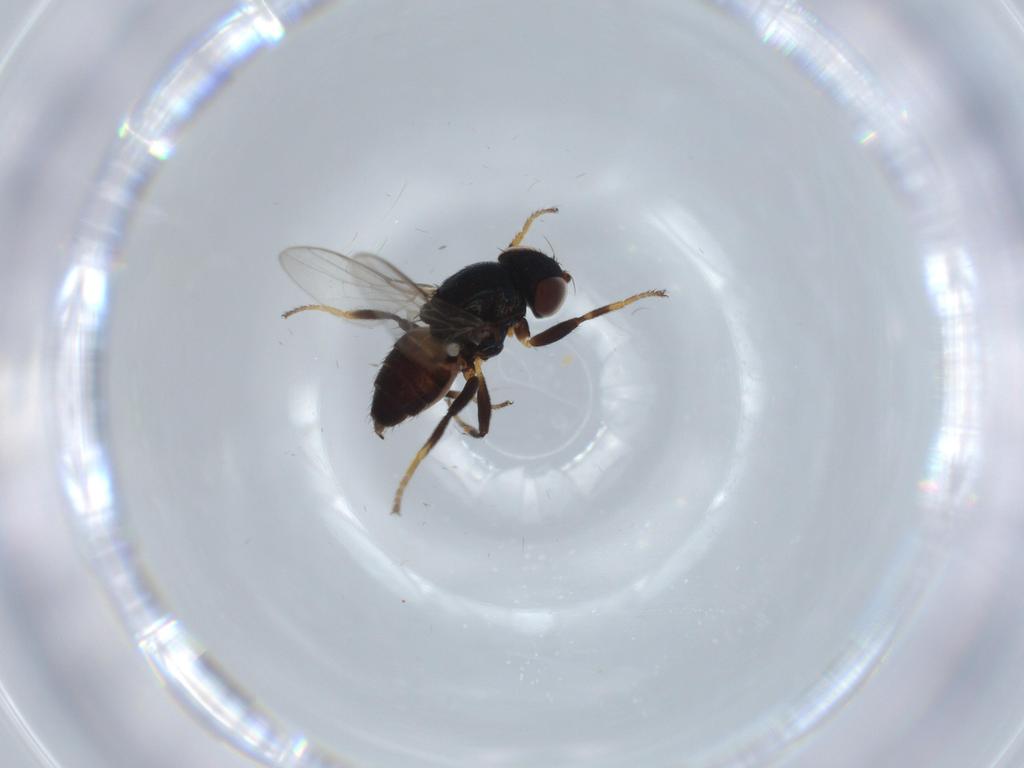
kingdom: Animalia
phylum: Arthropoda
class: Insecta
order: Diptera
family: Chloropidae
